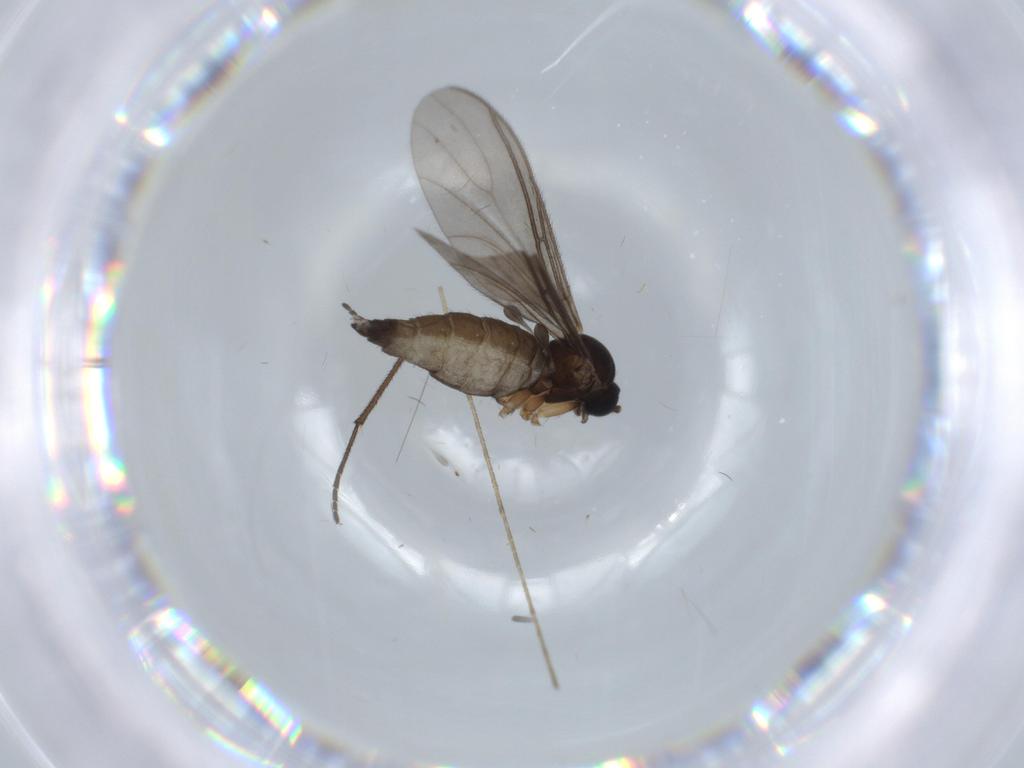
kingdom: Animalia
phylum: Arthropoda
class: Insecta
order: Diptera
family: Sciaridae
